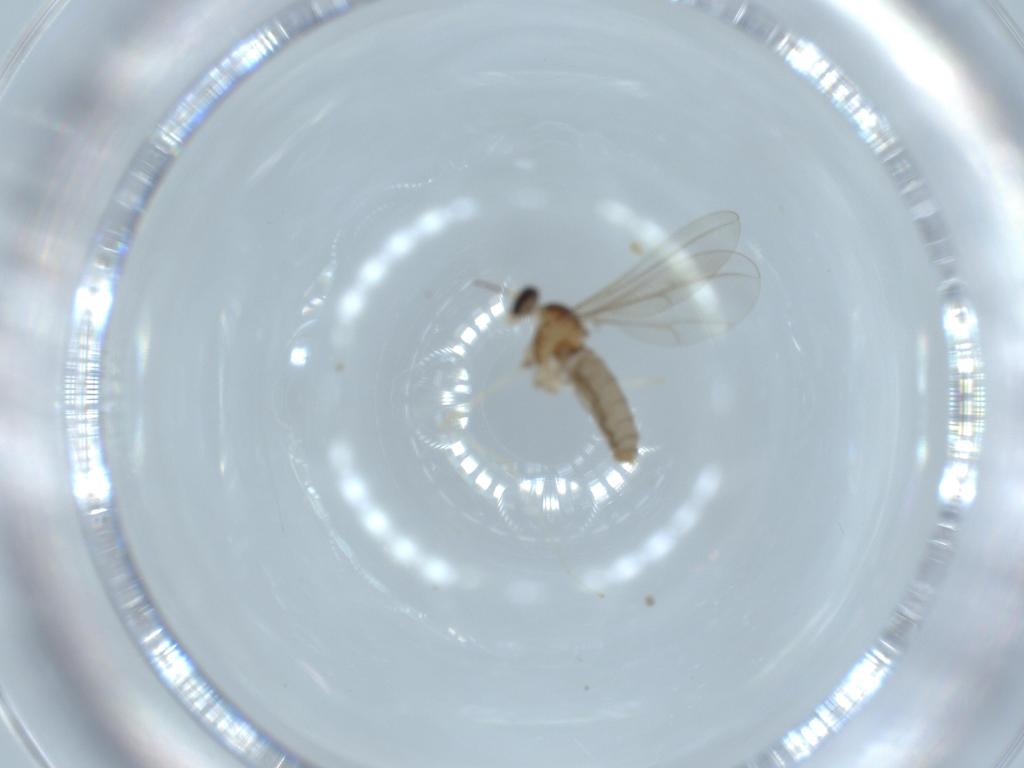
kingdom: Animalia
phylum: Arthropoda
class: Insecta
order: Diptera
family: Cecidomyiidae
